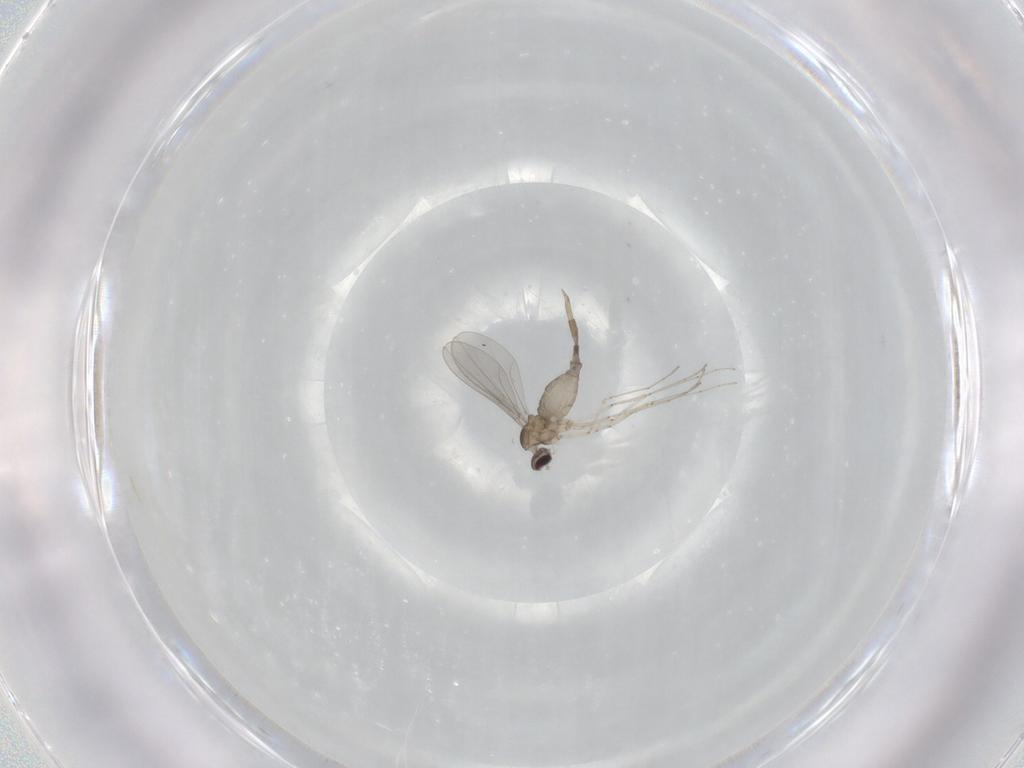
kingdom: Animalia
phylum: Arthropoda
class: Insecta
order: Diptera
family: Cecidomyiidae
